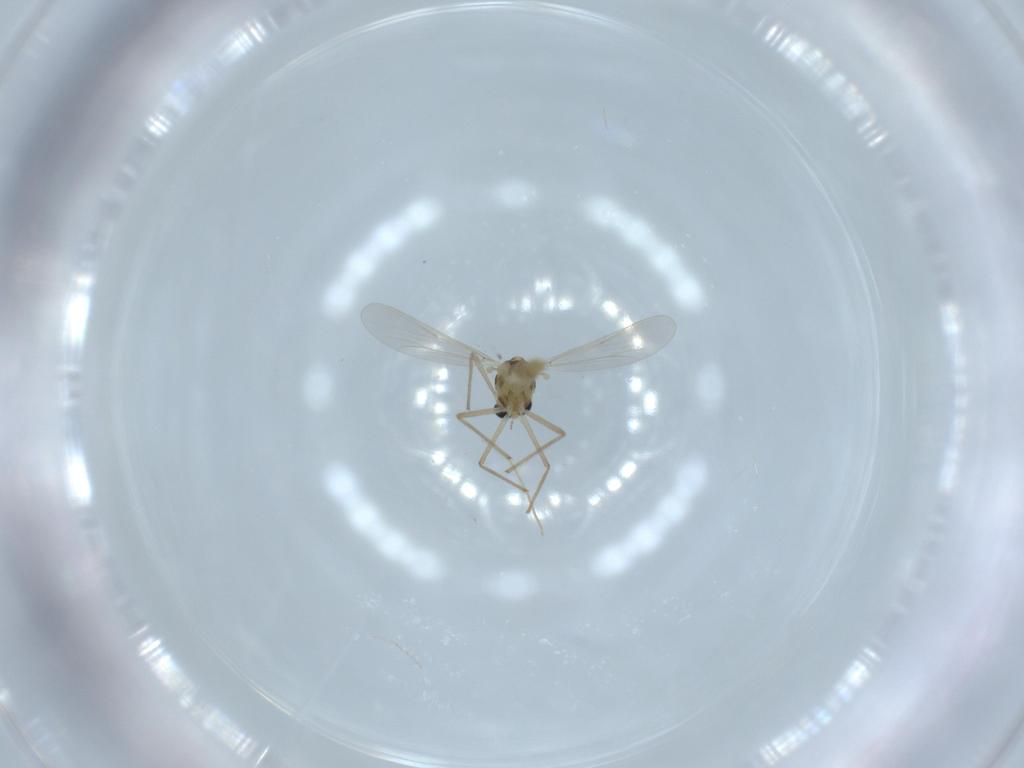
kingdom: Animalia
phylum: Arthropoda
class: Insecta
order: Diptera
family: Chironomidae
